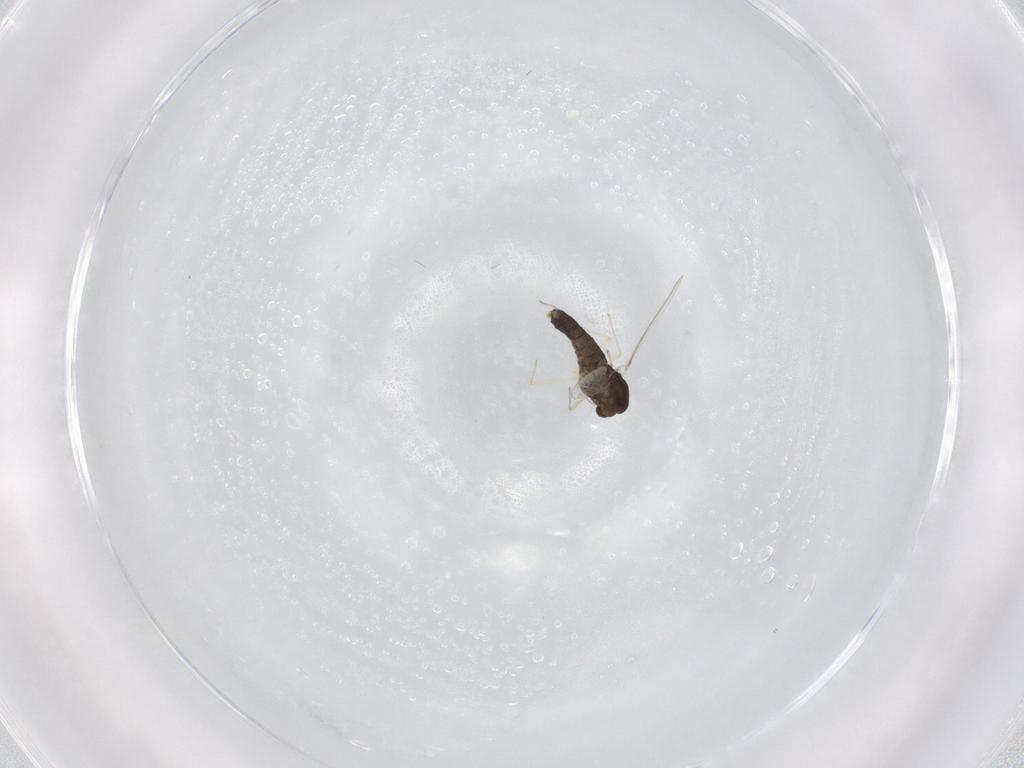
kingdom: Animalia
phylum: Arthropoda
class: Insecta
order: Diptera
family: Chironomidae
